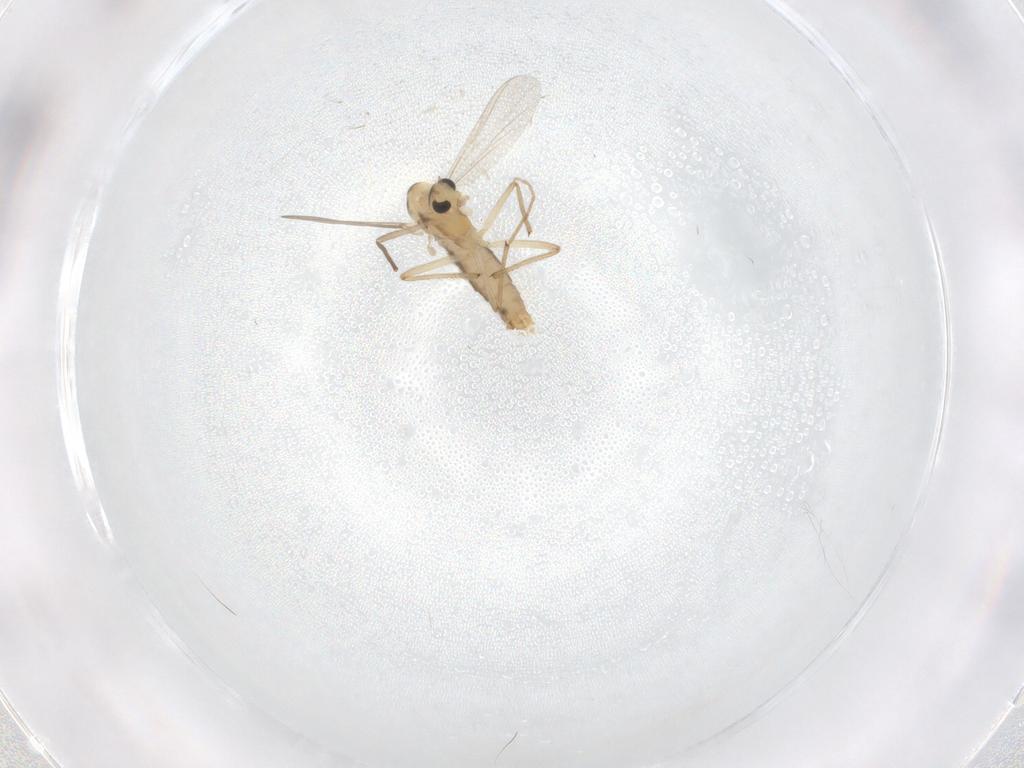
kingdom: Animalia
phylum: Arthropoda
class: Insecta
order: Diptera
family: Chironomidae
